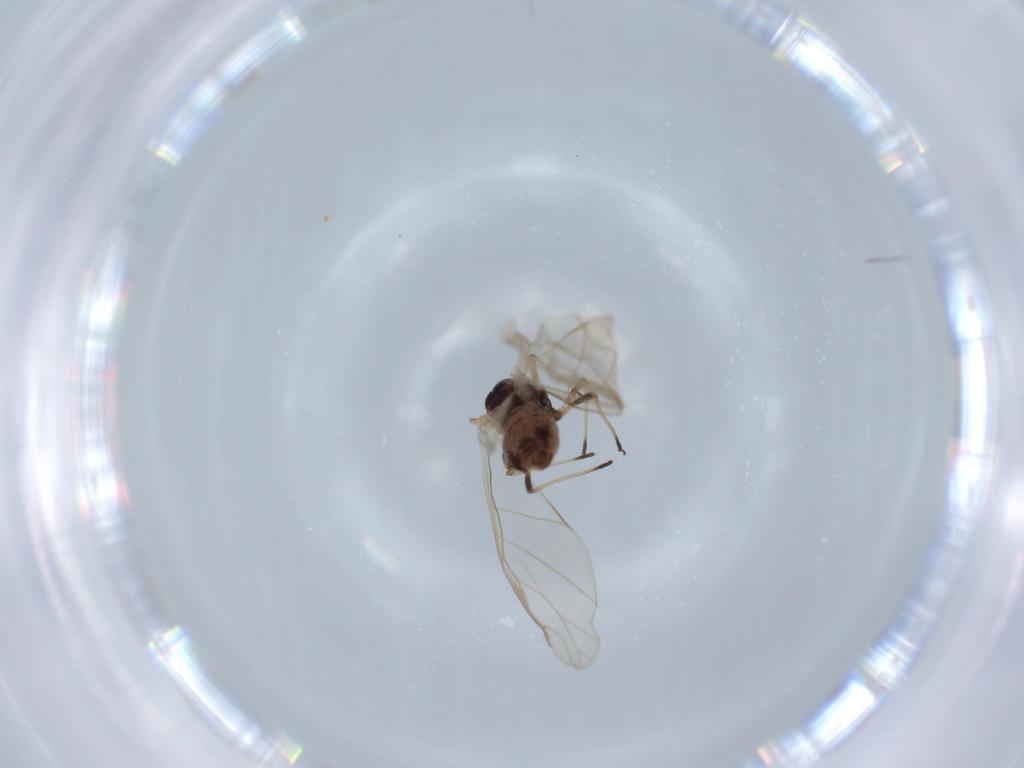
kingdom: Animalia
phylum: Arthropoda
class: Insecta
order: Hemiptera
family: Aphididae
